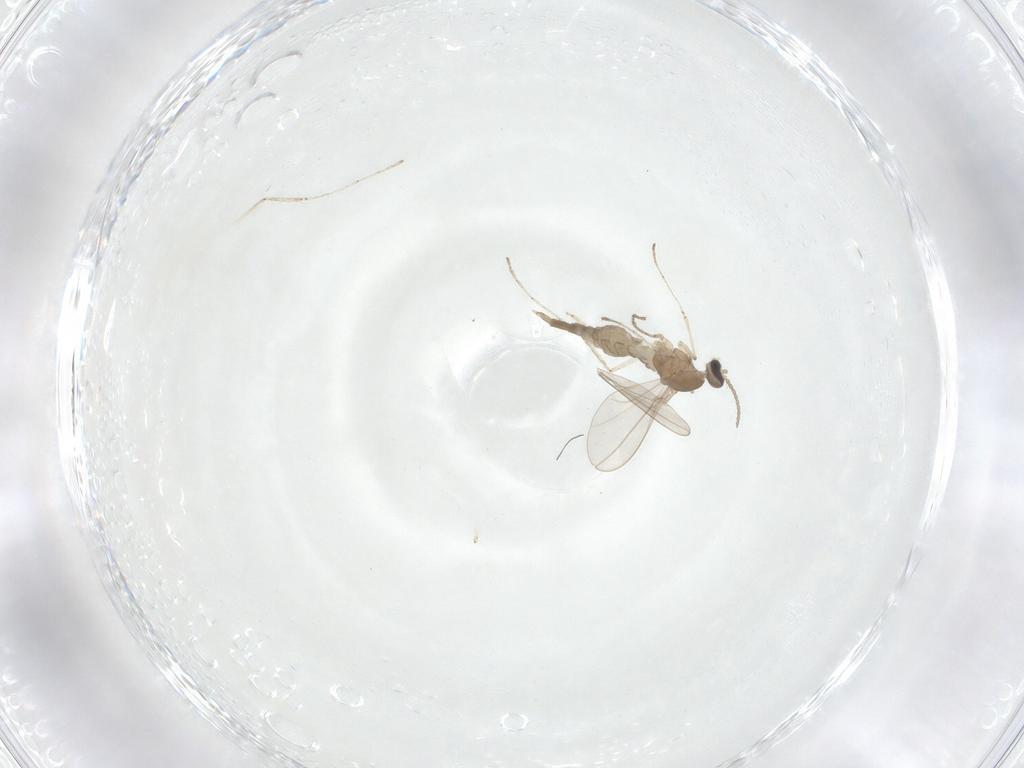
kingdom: Animalia
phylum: Arthropoda
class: Insecta
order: Diptera
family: Cecidomyiidae
